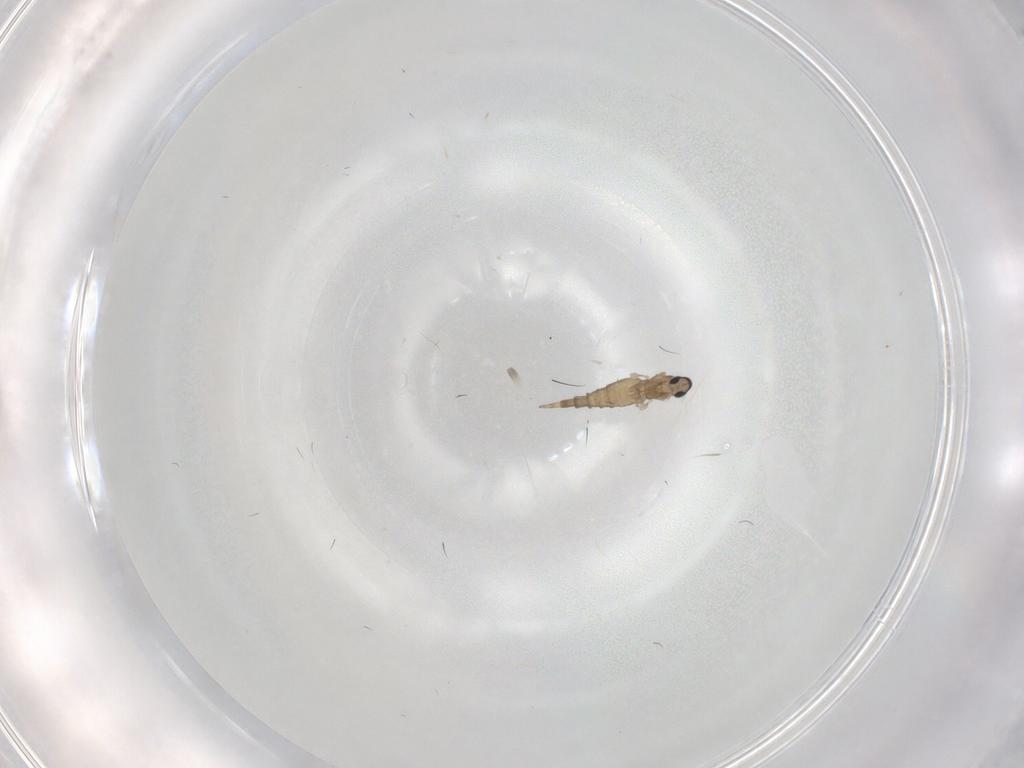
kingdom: Animalia
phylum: Arthropoda
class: Insecta
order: Diptera
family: Cecidomyiidae
